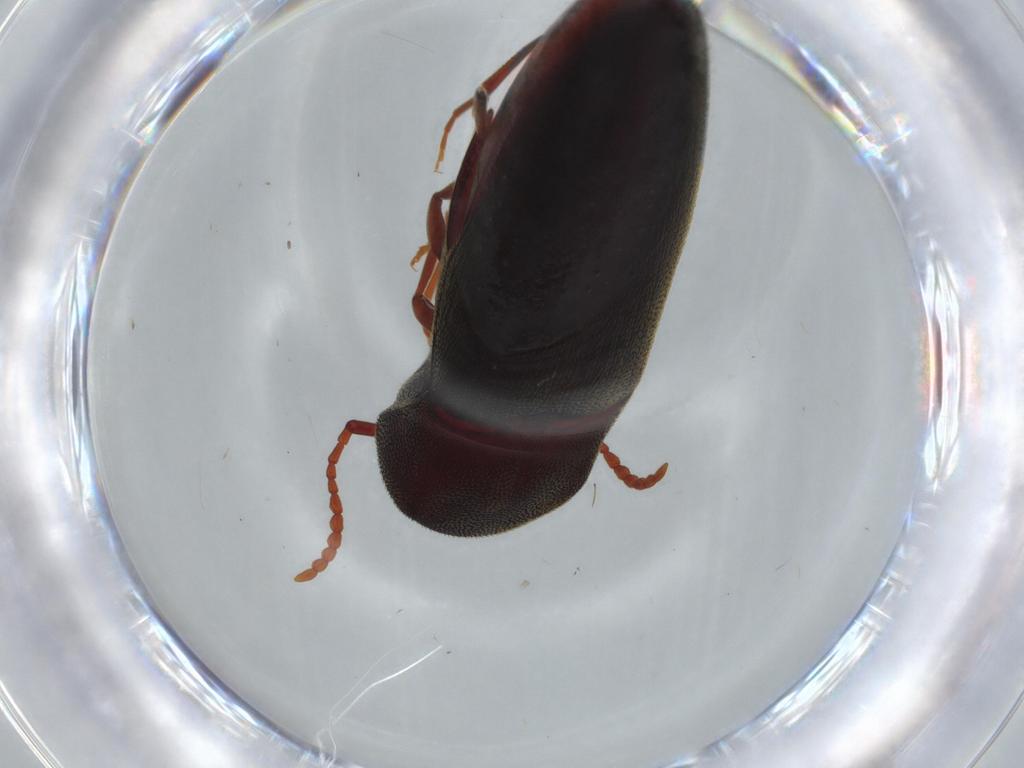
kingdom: Animalia
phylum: Arthropoda
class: Insecta
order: Coleoptera
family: Eucnemidae
